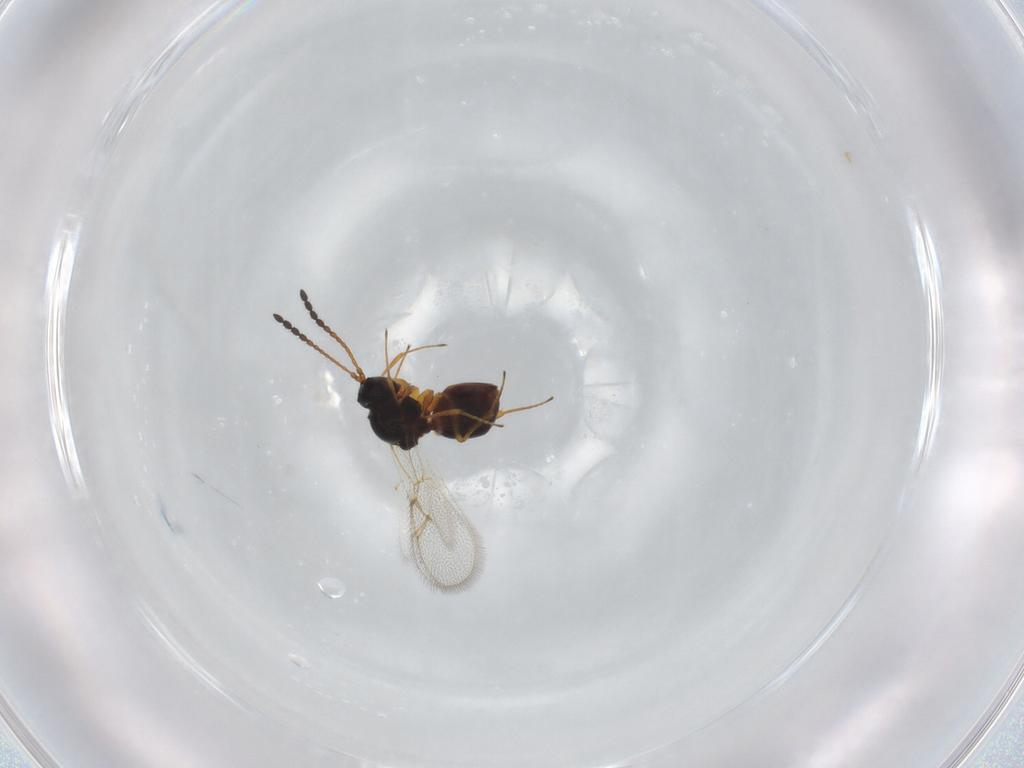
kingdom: Animalia
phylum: Arthropoda
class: Insecta
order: Hymenoptera
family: Figitidae
